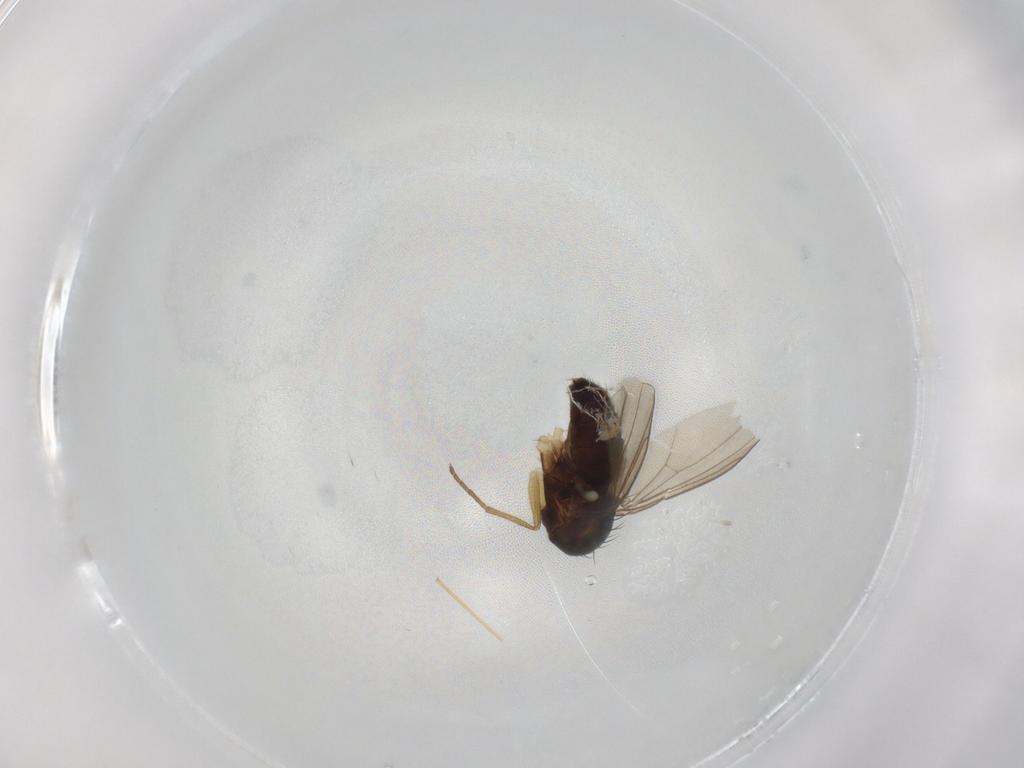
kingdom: Animalia
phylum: Arthropoda
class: Insecta
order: Diptera
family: Dolichopodidae
